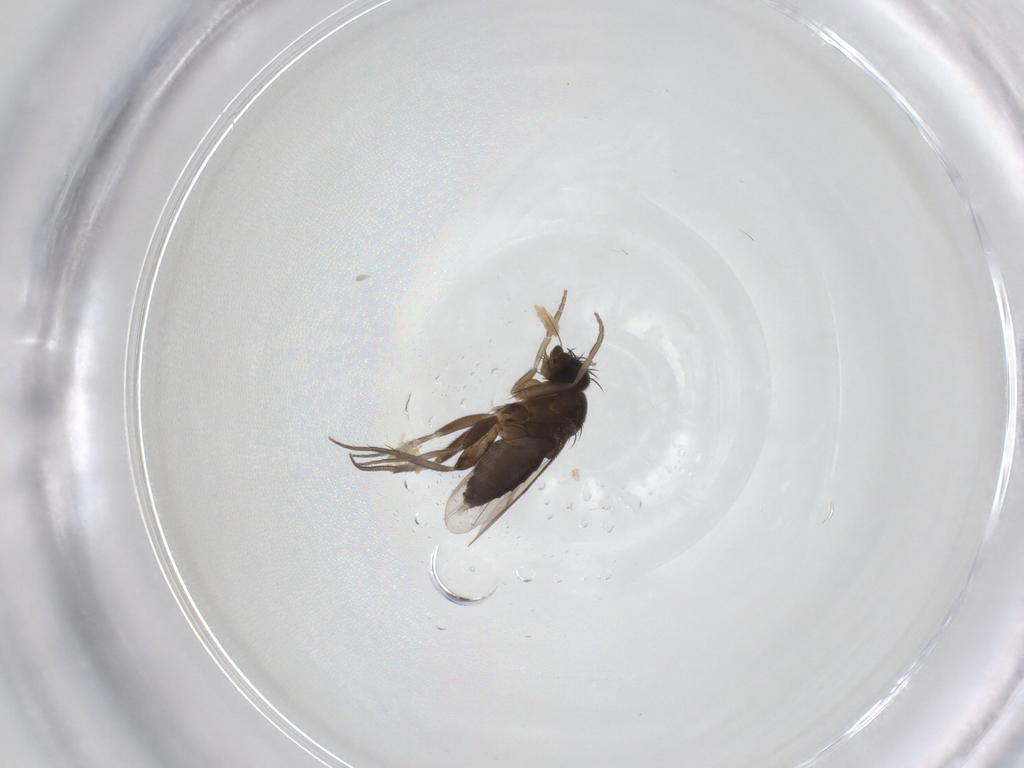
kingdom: Animalia
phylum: Arthropoda
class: Insecta
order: Diptera
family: Phoridae
